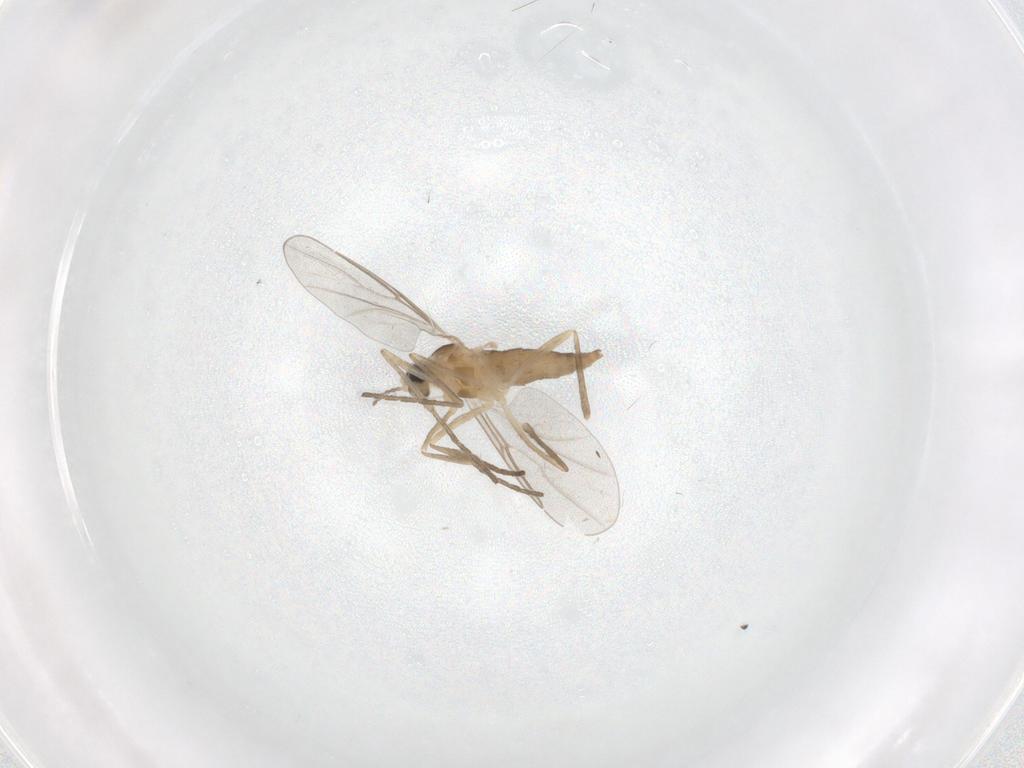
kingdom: Animalia
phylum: Arthropoda
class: Insecta
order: Diptera
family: Cecidomyiidae
